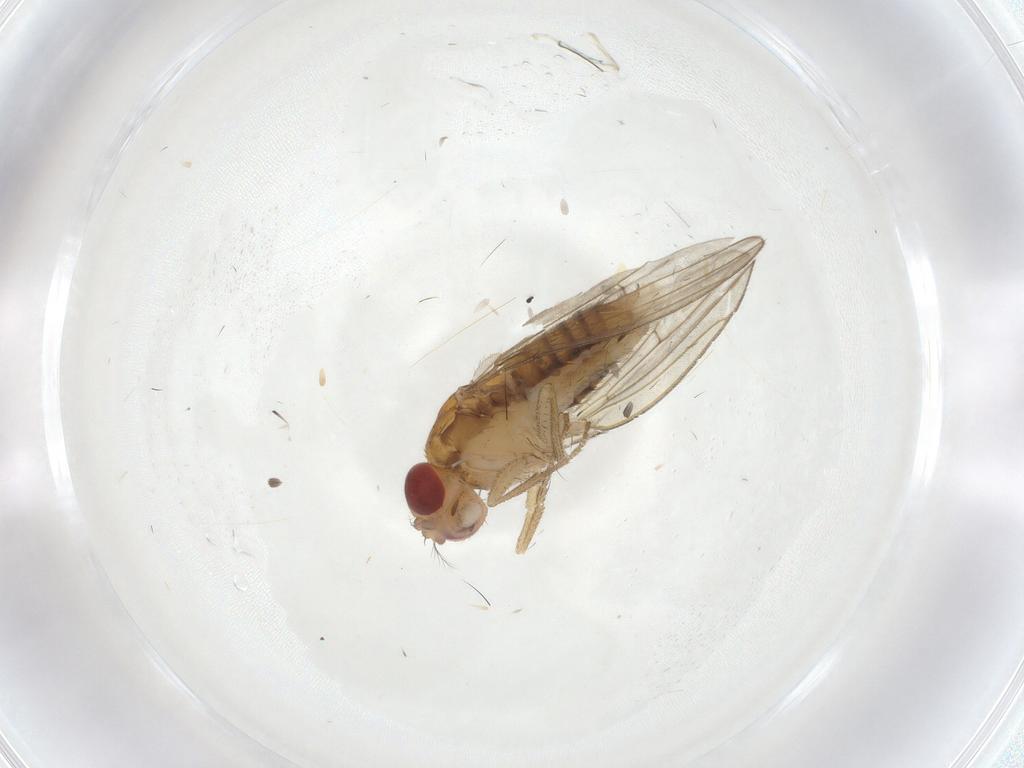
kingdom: Animalia
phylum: Arthropoda
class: Insecta
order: Diptera
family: Drosophilidae
